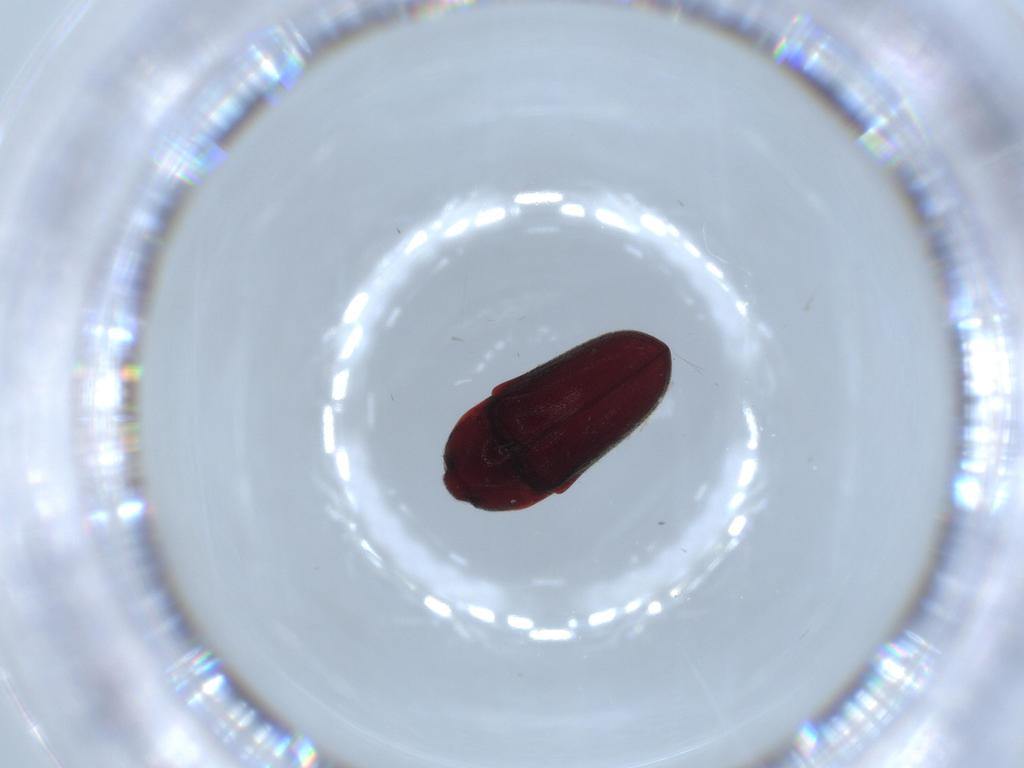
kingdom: Animalia
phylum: Arthropoda
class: Insecta
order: Coleoptera
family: Throscidae
